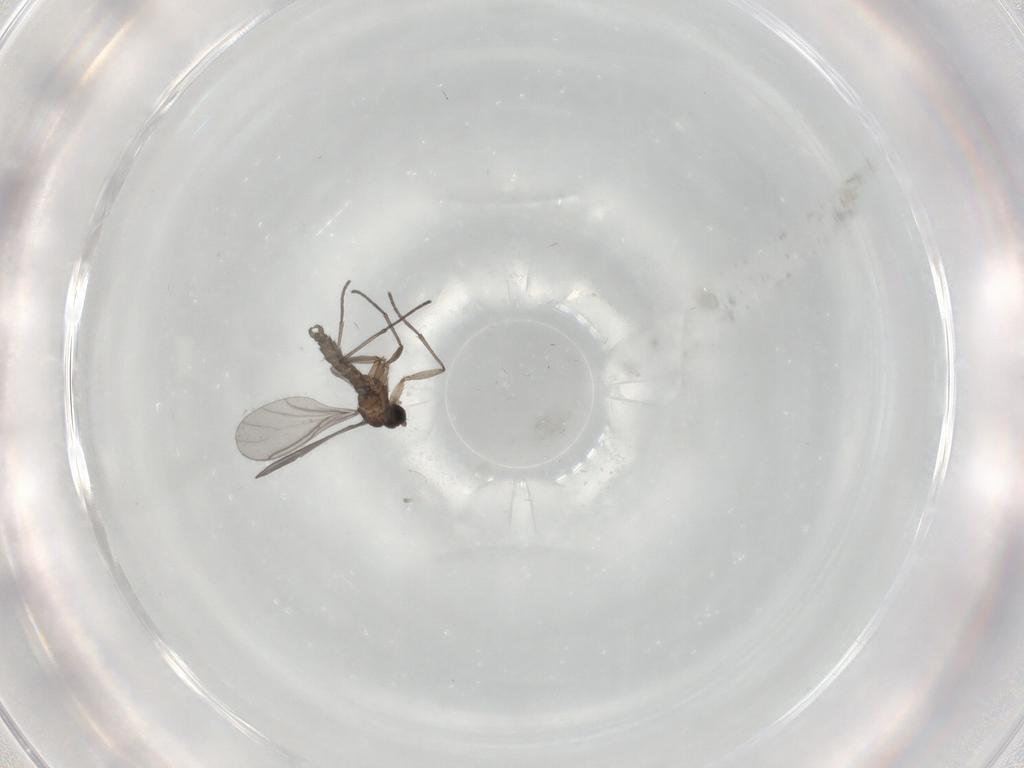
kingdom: Animalia
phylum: Arthropoda
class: Insecta
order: Diptera
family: Sciaridae
